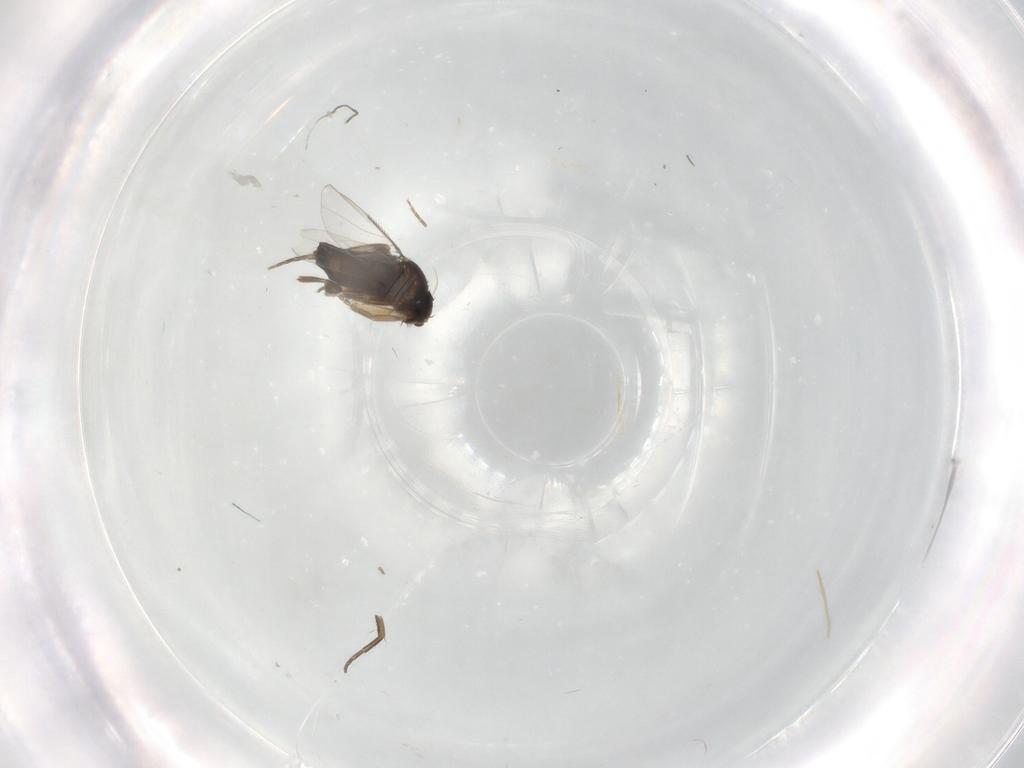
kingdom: Animalia
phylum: Arthropoda
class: Insecta
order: Diptera
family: Phoridae
